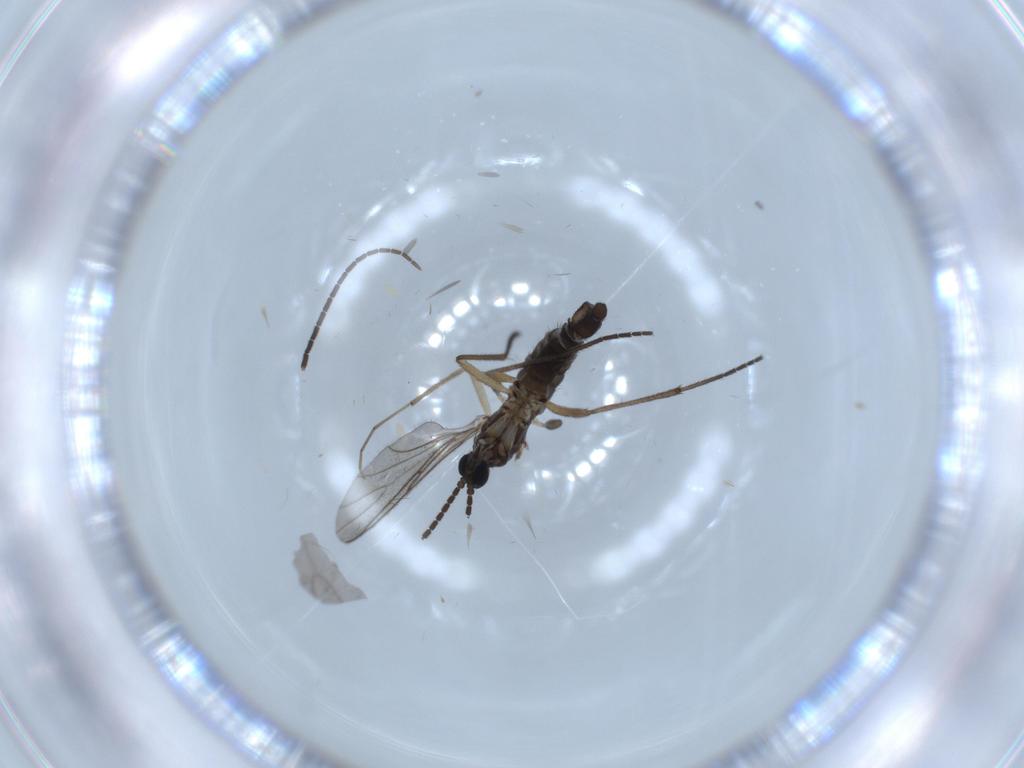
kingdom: Animalia
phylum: Arthropoda
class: Insecta
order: Diptera
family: Sciaridae
